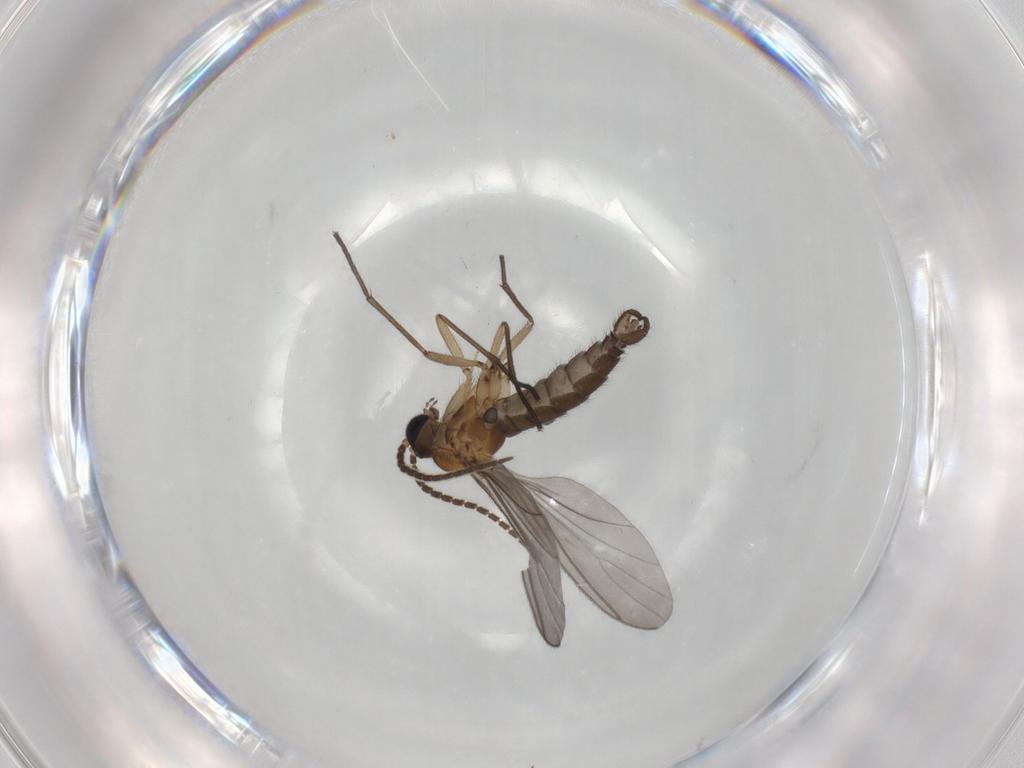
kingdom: Animalia
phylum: Arthropoda
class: Insecta
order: Diptera
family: Sciaridae
